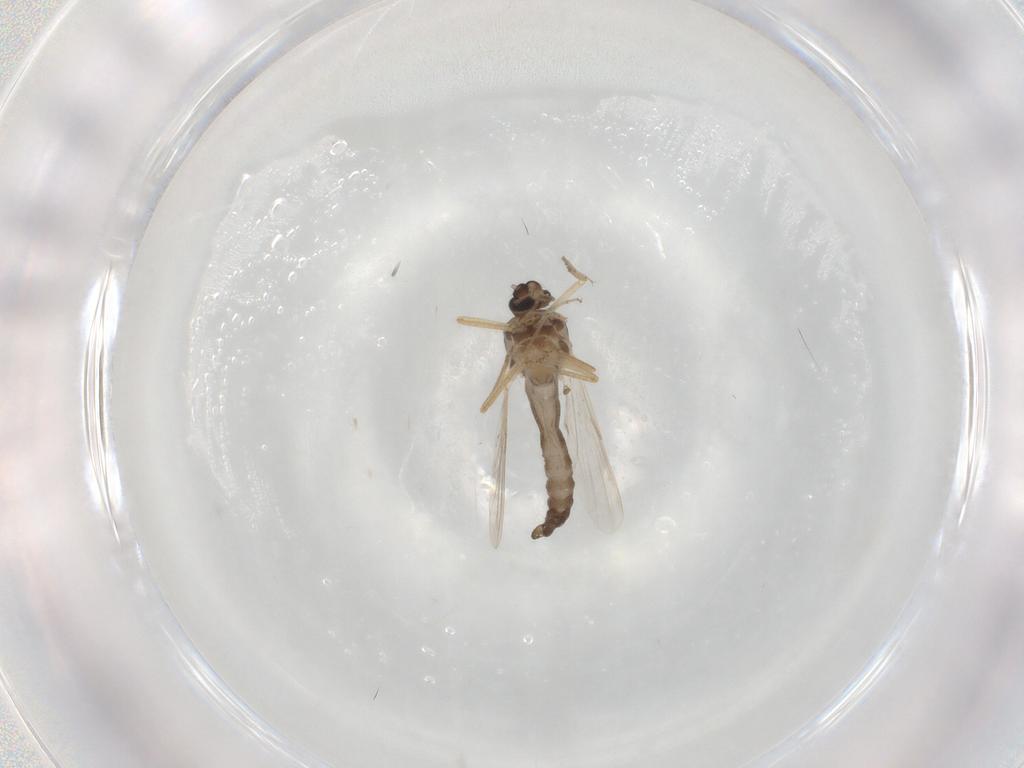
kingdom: Animalia
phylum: Arthropoda
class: Insecta
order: Diptera
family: Ceratopogonidae
